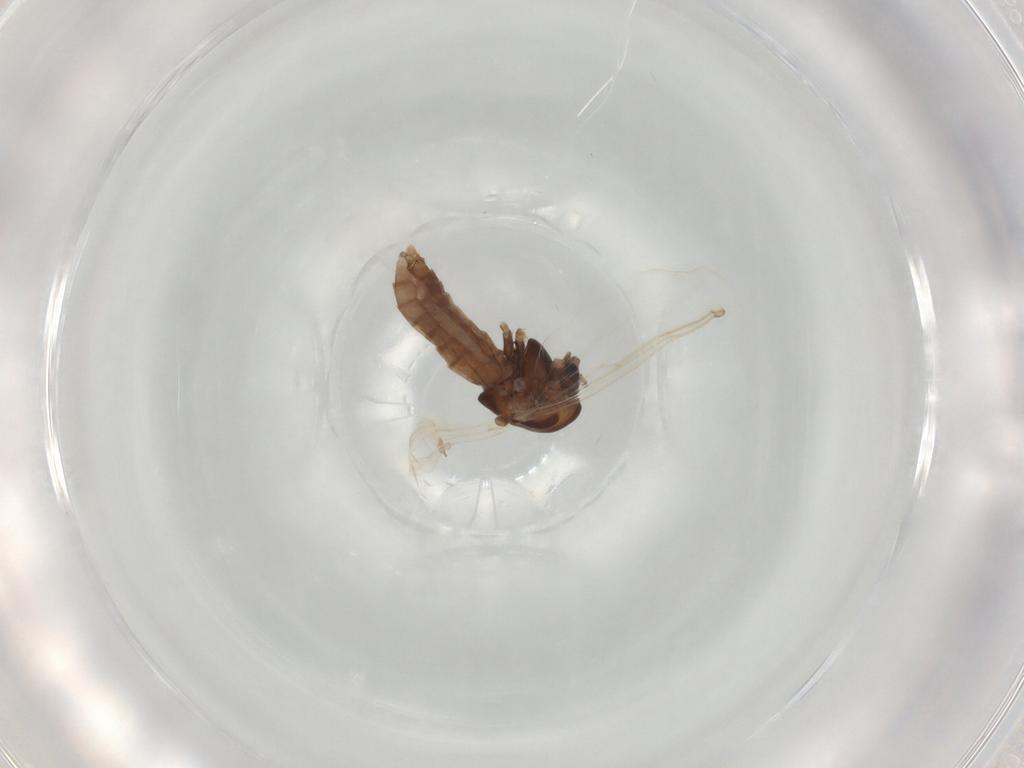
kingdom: Animalia
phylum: Arthropoda
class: Insecta
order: Diptera
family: Chironomidae
